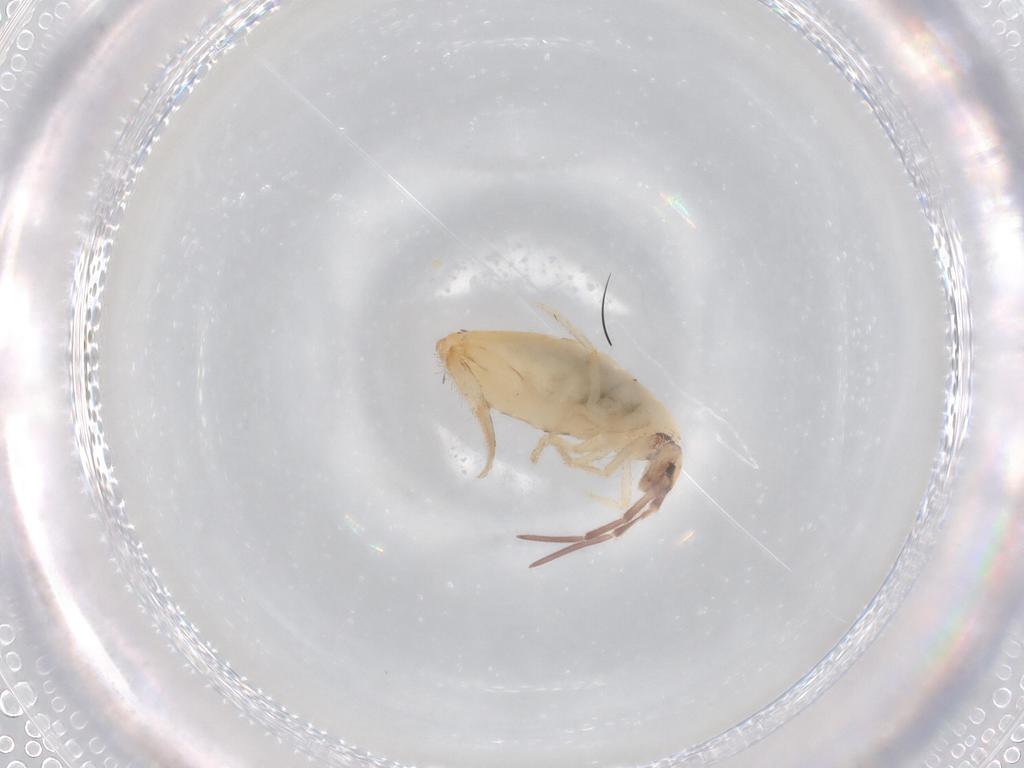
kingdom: Animalia
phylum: Arthropoda
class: Collembola
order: Entomobryomorpha
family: Entomobryidae
